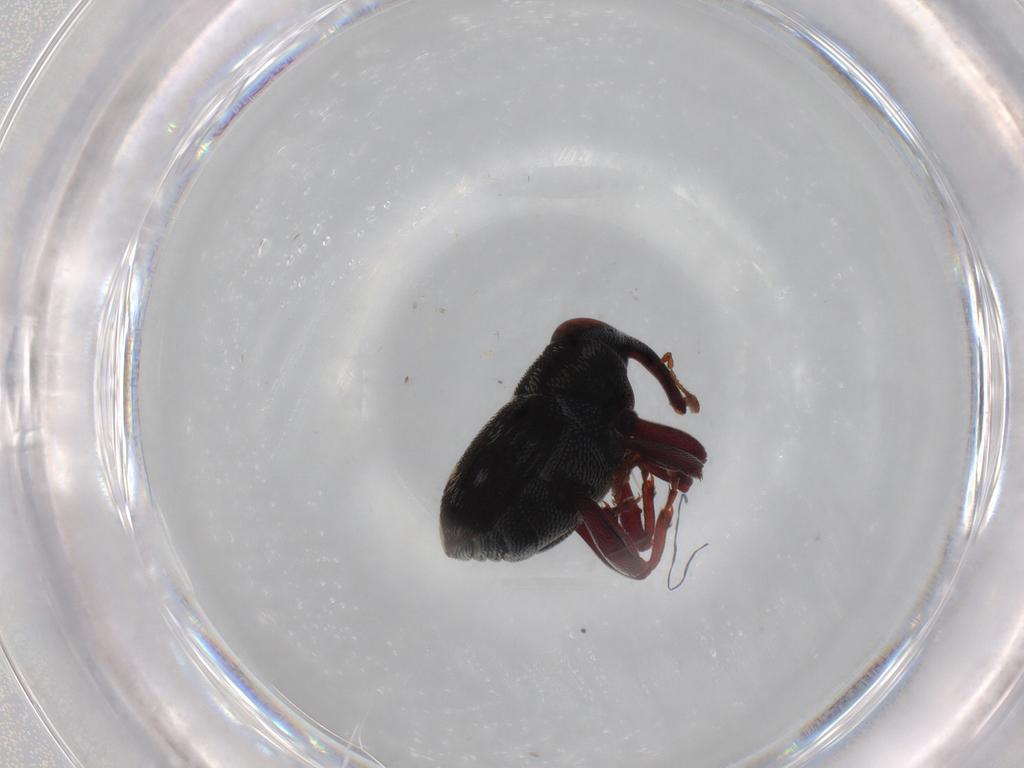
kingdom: Animalia
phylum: Arthropoda
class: Insecta
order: Coleoptera
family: Curculionidae
